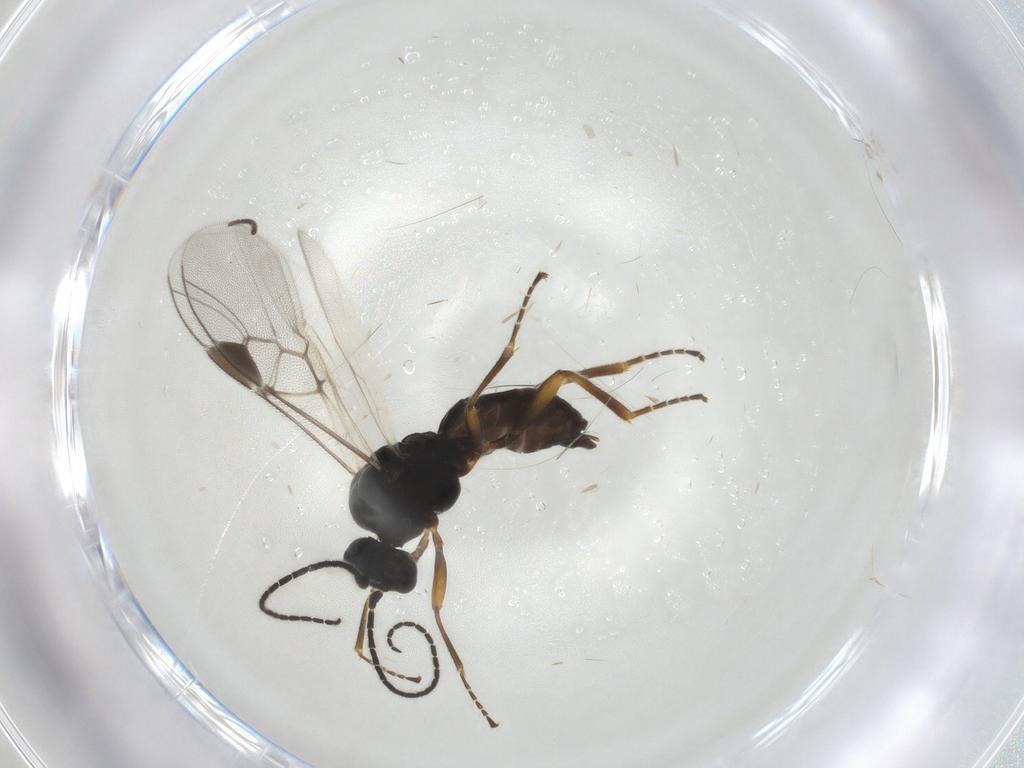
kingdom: Animalia
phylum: Arthropoda
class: Insecta
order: Hymenoptera
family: Braconidae
